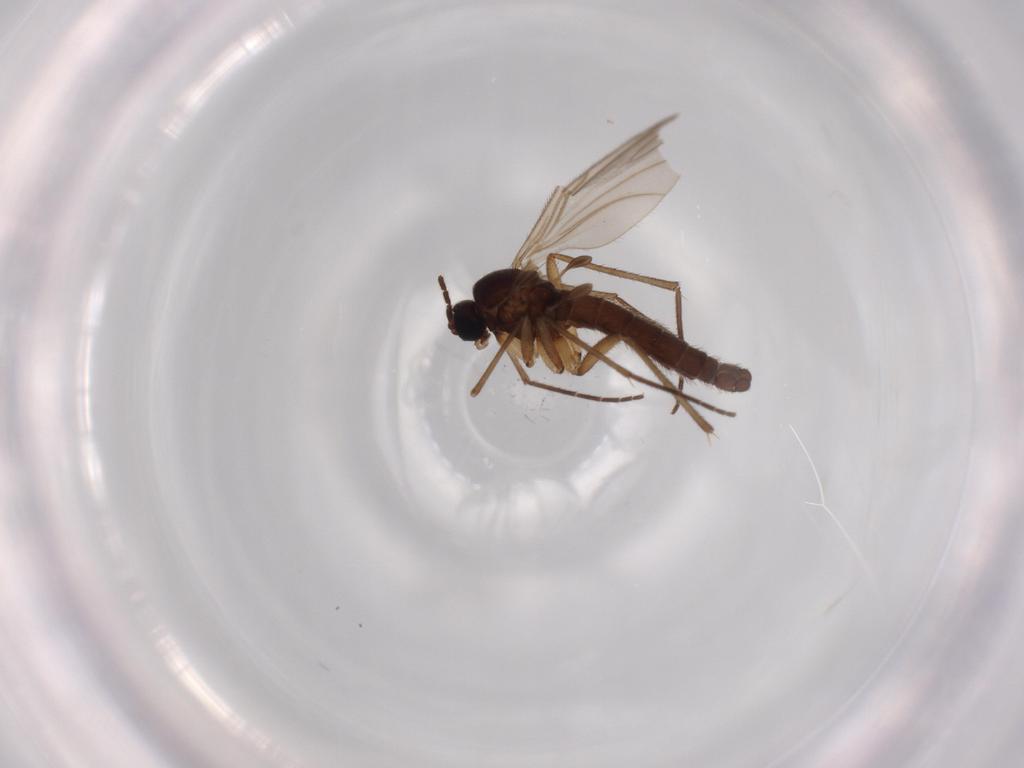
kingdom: Animalia
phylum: Arthropoda
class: Insecta
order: Diptera
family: Sciaridae
